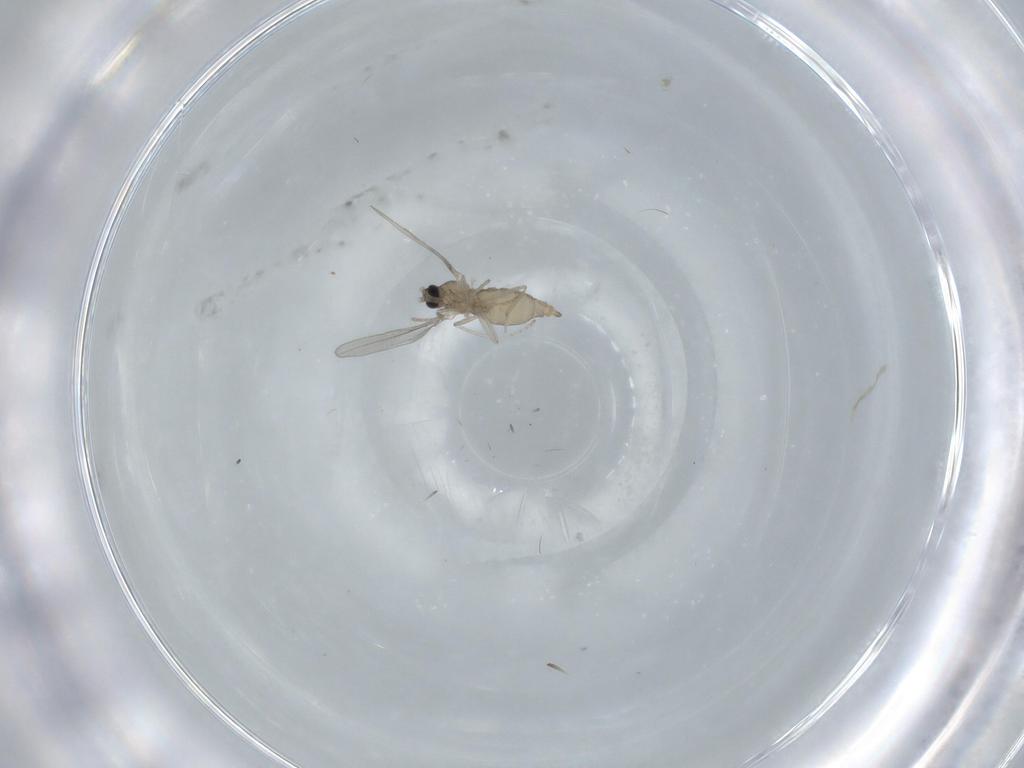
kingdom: Animalia
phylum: Arthropoda
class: Insecta
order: Diptera
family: Cecidomyiidae
